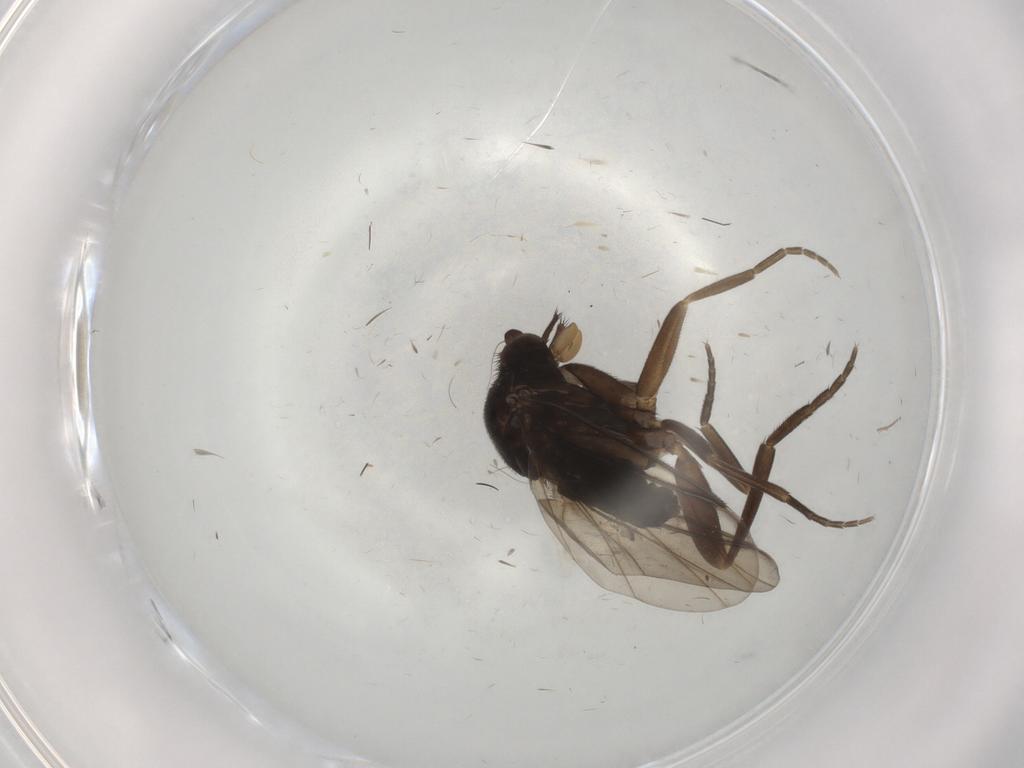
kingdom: Animalia
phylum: Arthropoda
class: Insecta
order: Diptera
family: Phoridae
